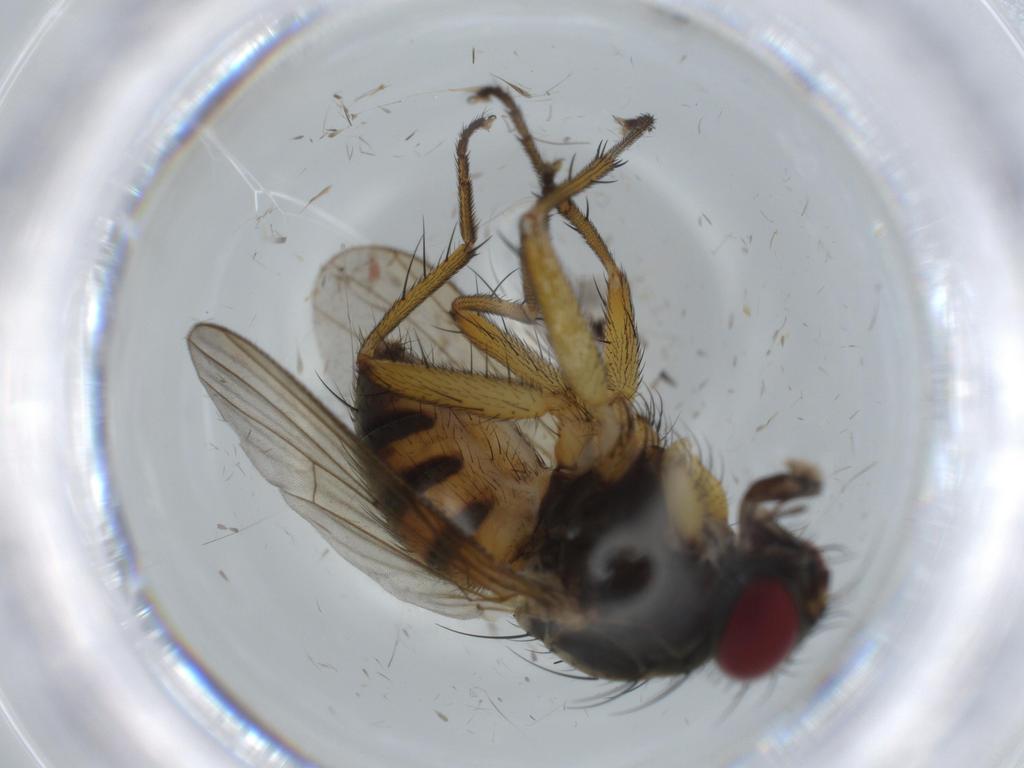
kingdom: Animalia
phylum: Arthropoda
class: Insecta
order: Diptera
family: Muscidae
